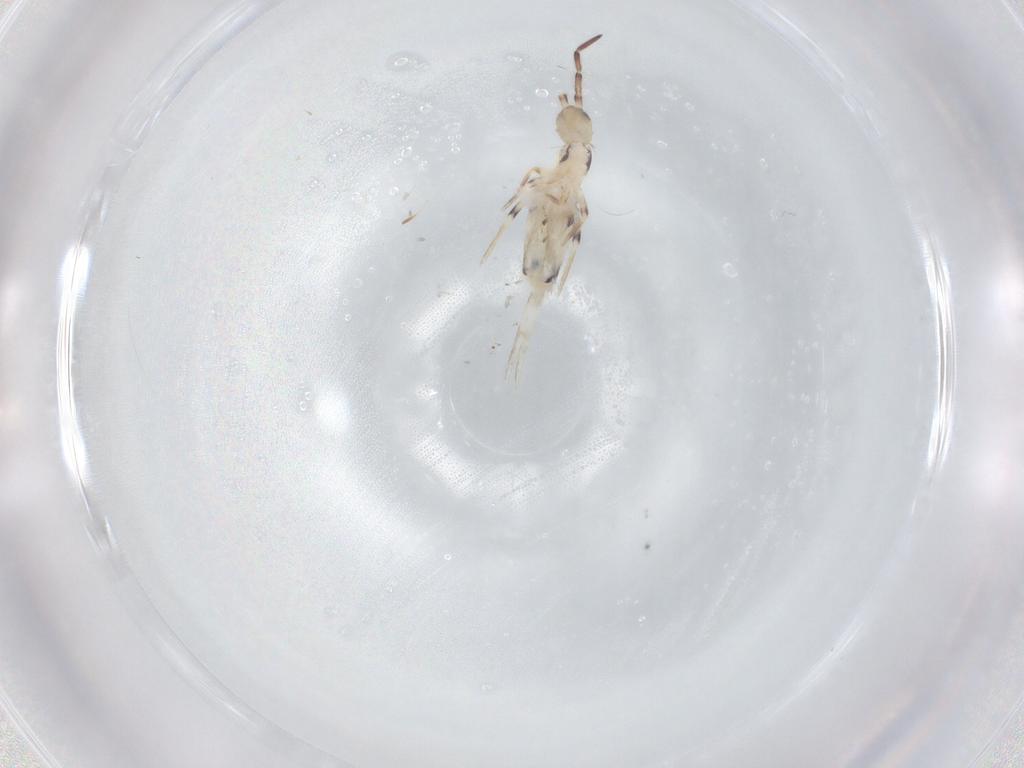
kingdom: Animalia
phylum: Arthropoda
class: Collembola
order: Entomobryomorpha
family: Entomobryidae
